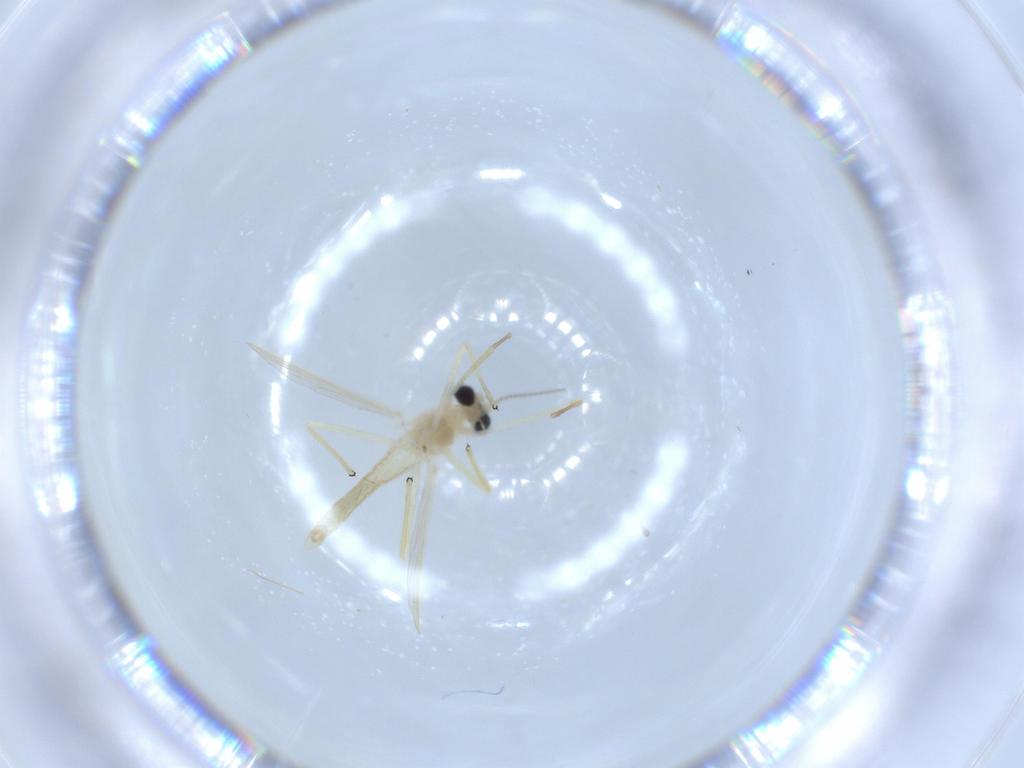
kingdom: Animalia
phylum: Arthropoda
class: Insecta
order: Diptera
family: Chironomidae
